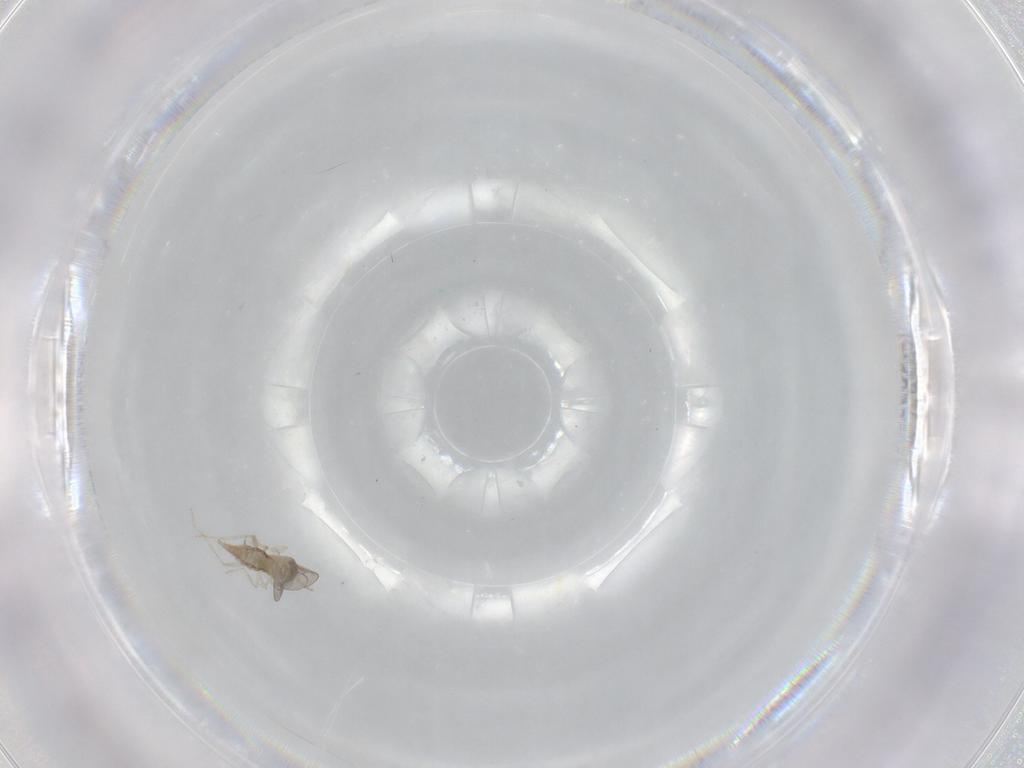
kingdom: Animalia
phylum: Arthropoda
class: Insecta
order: Diptera
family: Cecidomyiidae
